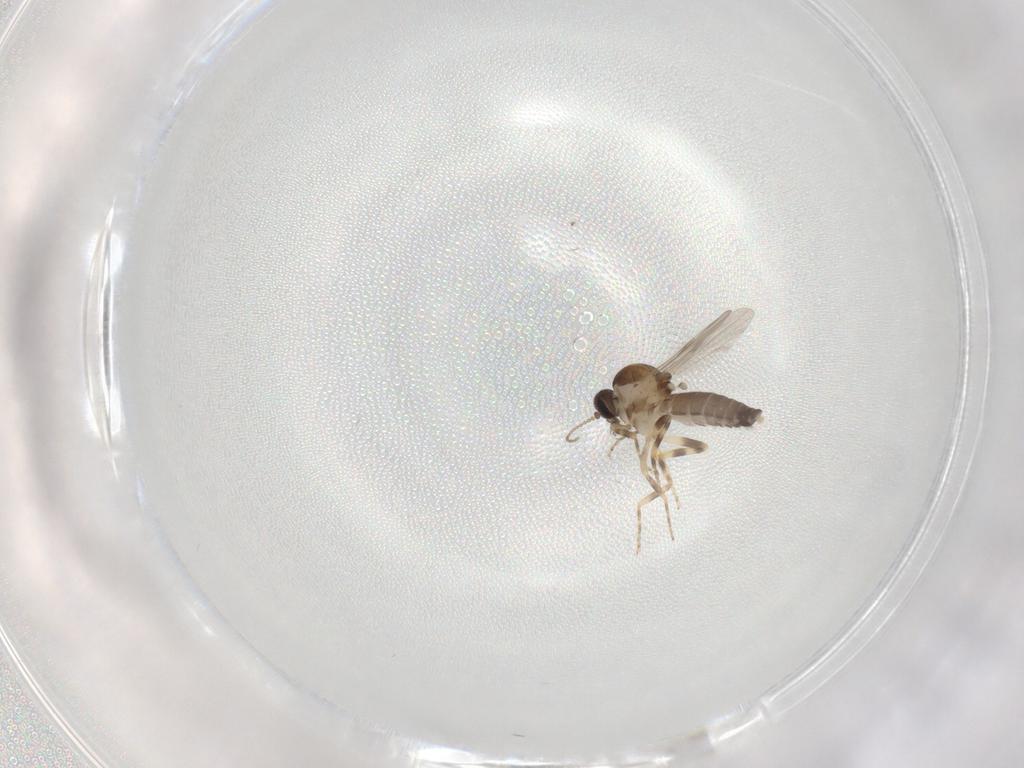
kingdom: Animalia
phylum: Arthropoda
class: Insecta
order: Diptera
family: Psychodidae
